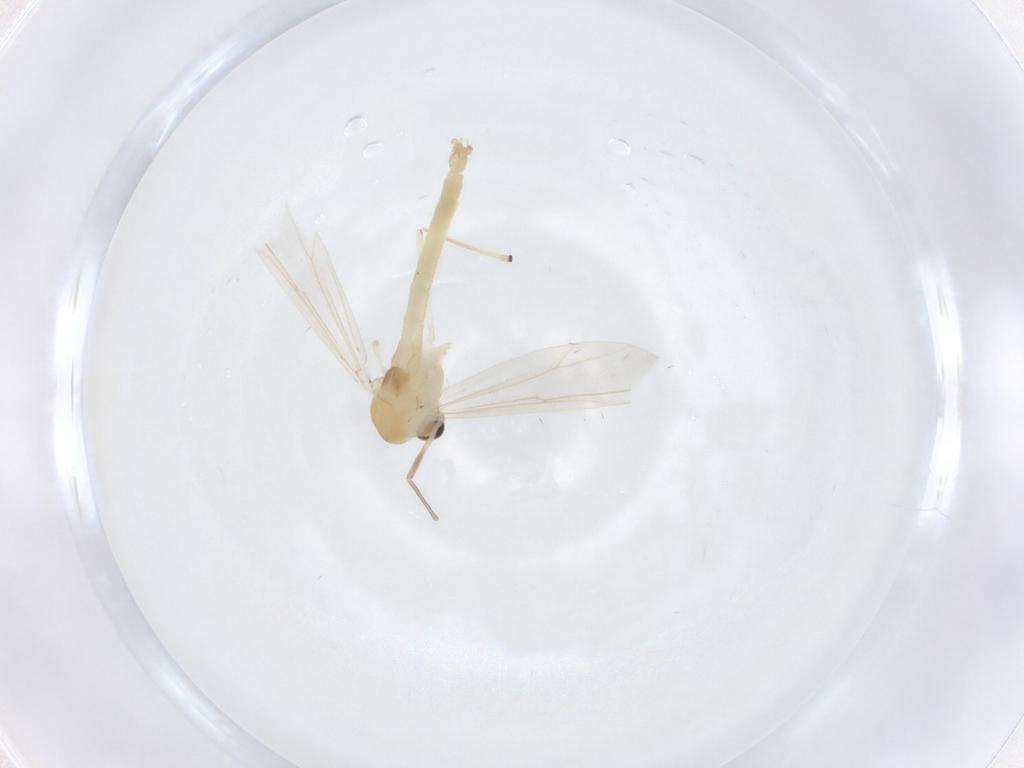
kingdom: Animalia
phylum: Arthropoda
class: Insecta
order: Diptera
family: Chironomidae
